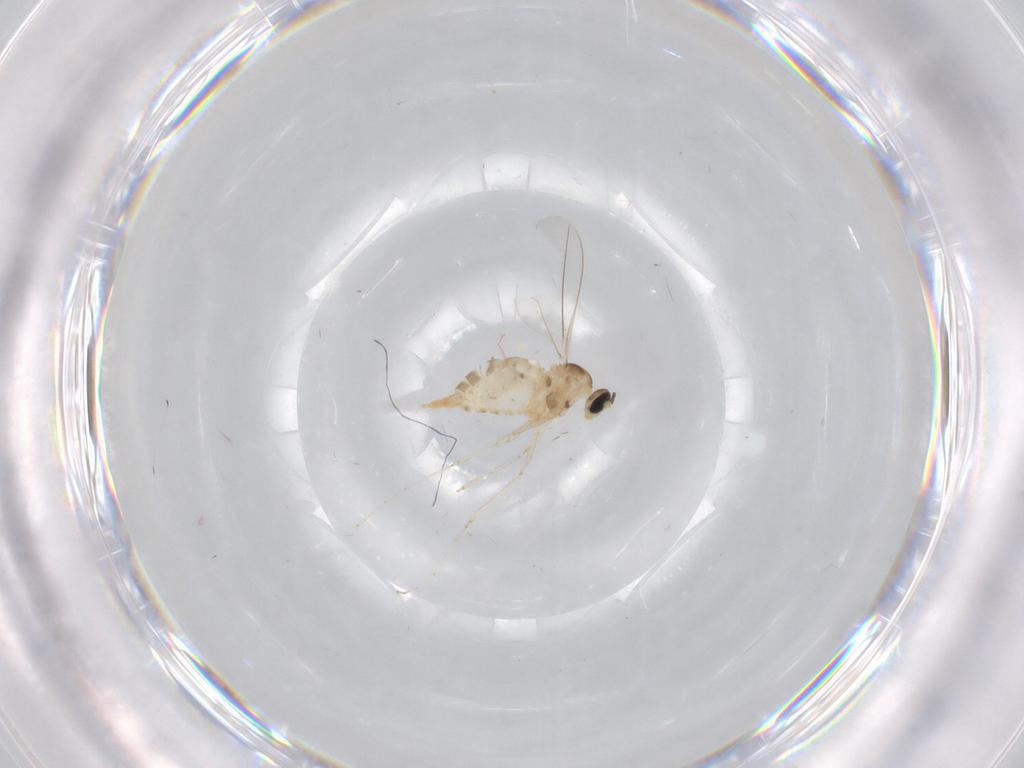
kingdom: Animalia
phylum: Arthropoda
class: Insecta
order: Diptera
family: Cecidomyiidae
